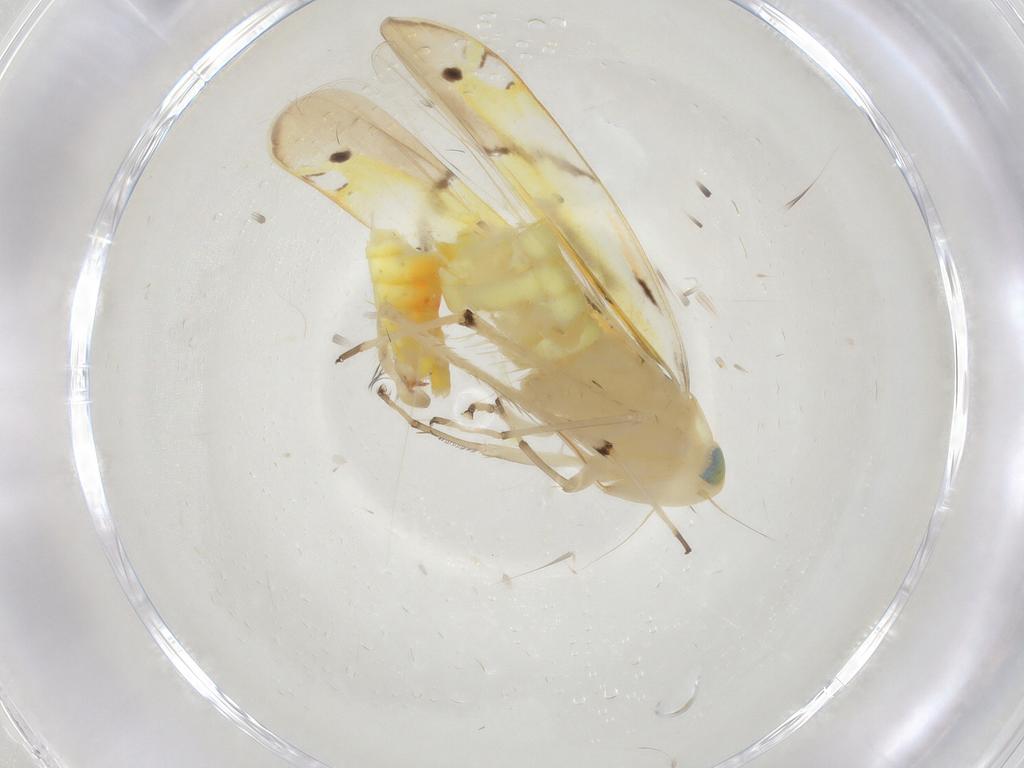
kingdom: Animalia
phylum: Arthropoda
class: Insecta
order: Hemiptera
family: Cicadellidae
